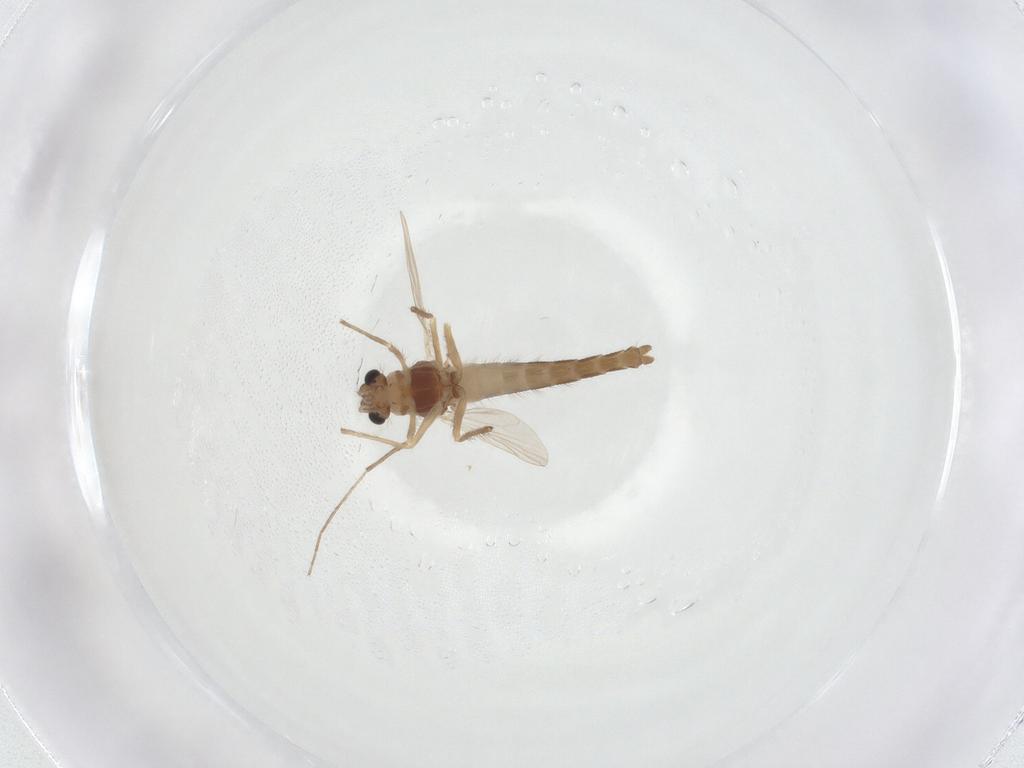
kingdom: Animalia
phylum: Arthropoda
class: Insecta
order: Diptera
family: Chironomidae
